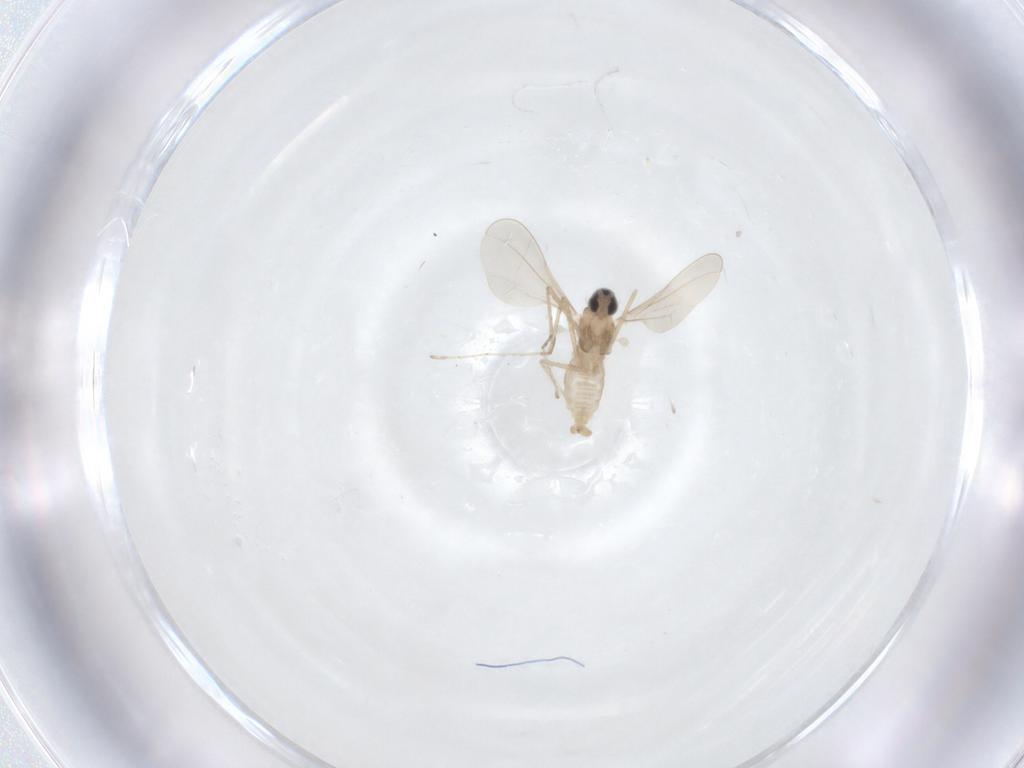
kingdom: Animalia
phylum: Arthropoda
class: Insecta
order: Diptera
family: Cecidomyiidae
